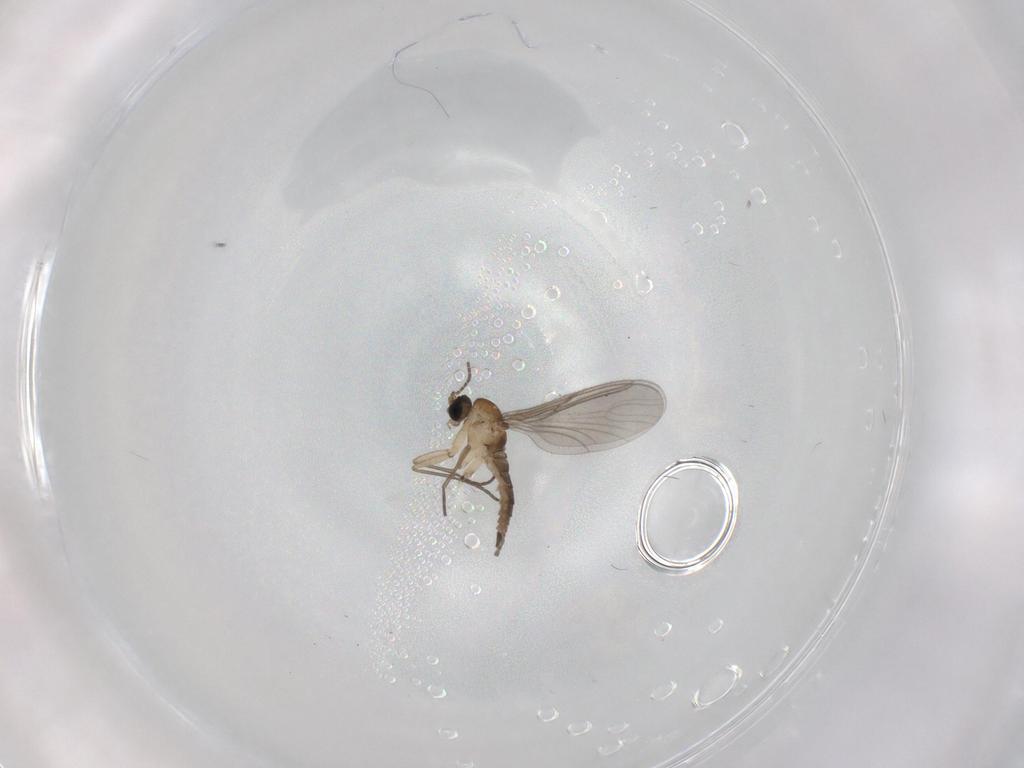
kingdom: Animalia
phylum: Arthropoda
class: Insecta
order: Diptera
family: Sciaridae
